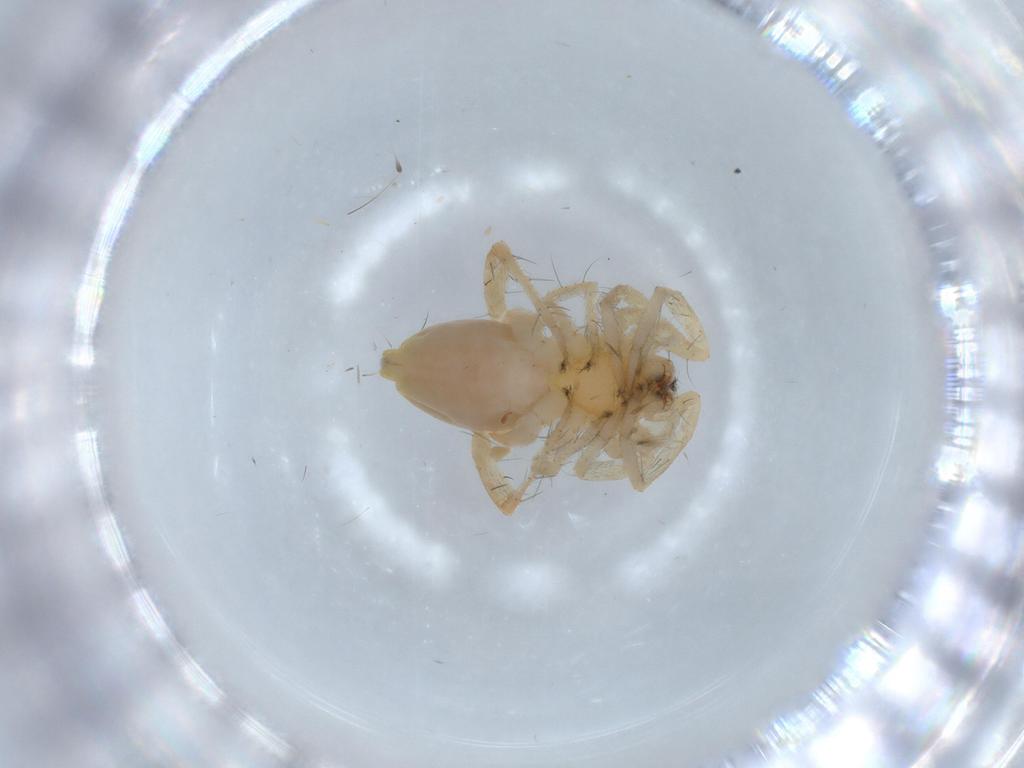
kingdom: Animalia
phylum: Arthropoda
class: Arachnida
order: Araneae
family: Anyphaenidae
